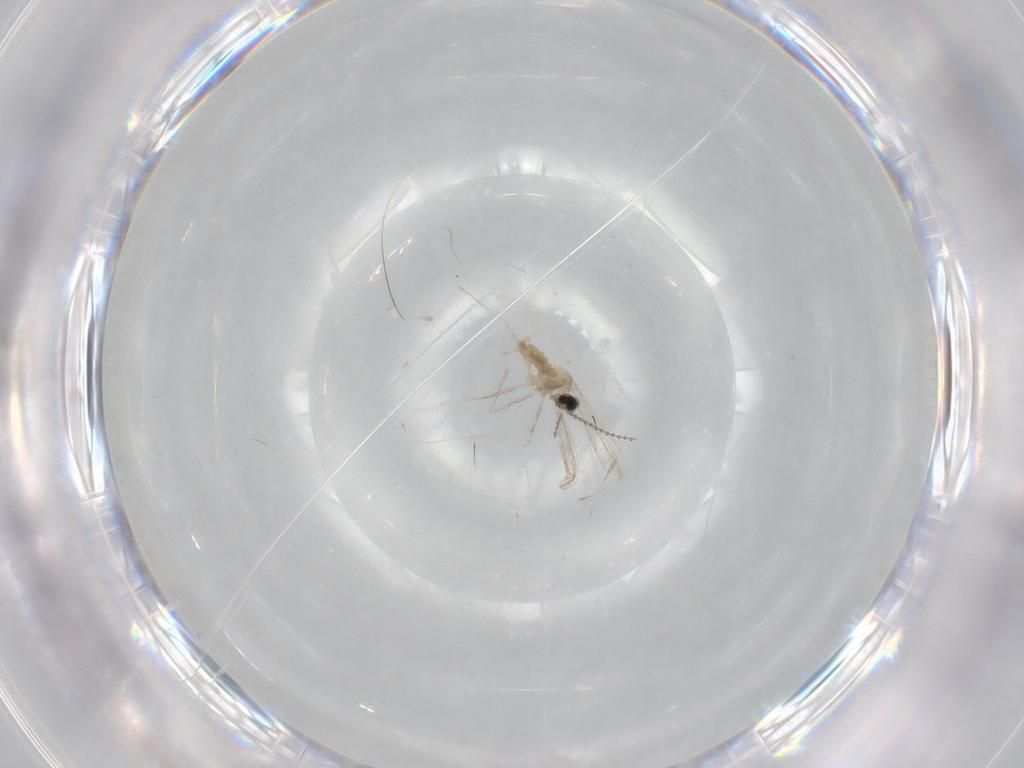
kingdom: Animalia
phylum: Arthropoda
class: Insecta
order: Diptera
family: Cecidomyiidae
